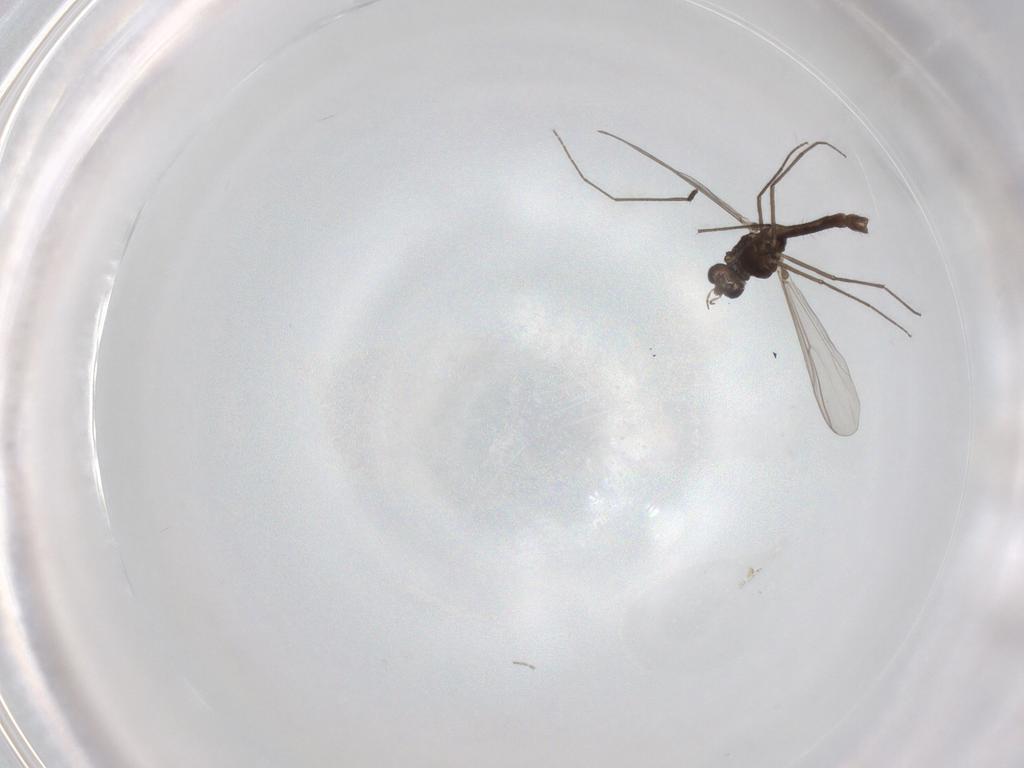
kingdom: Animalia
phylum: Arthropoda
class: Insecta
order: Diptera
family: Chironomidae
